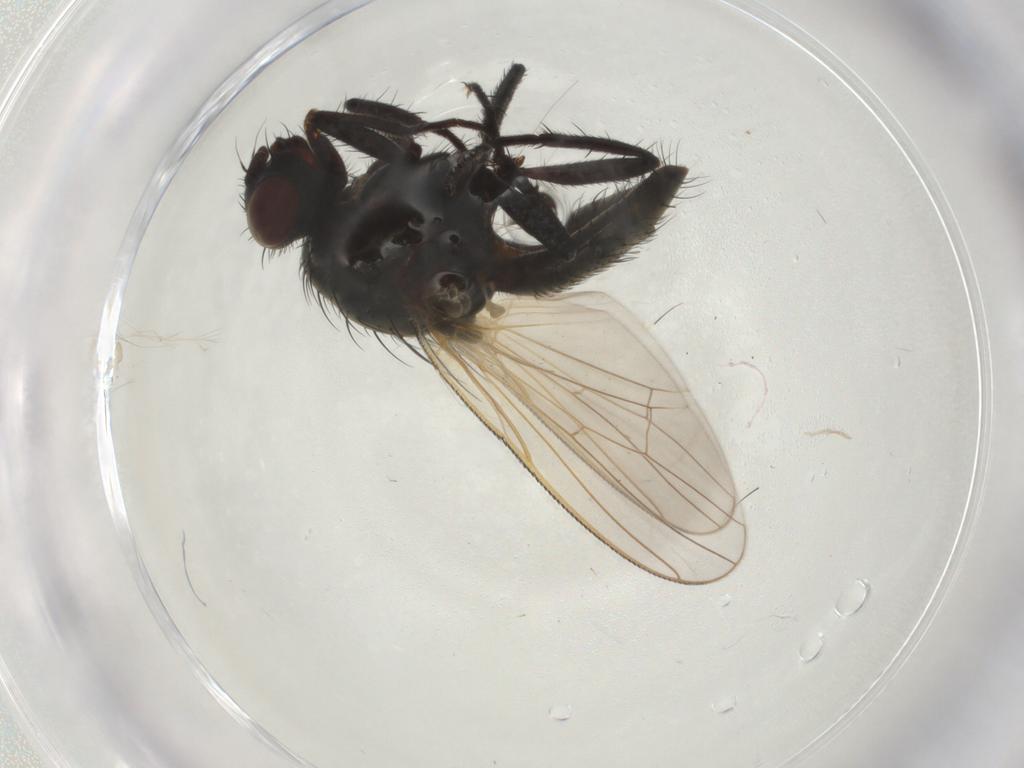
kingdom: Animalia
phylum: Arthropoda
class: Insecta
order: Diptera
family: Anthomyiidae
